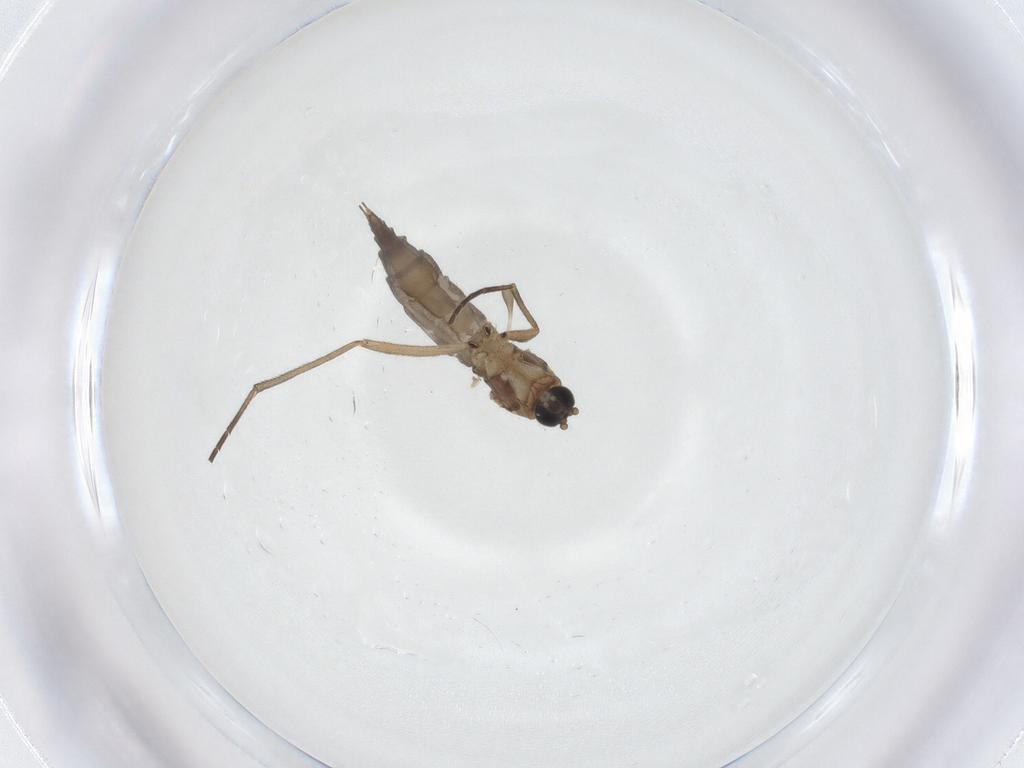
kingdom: Animalia
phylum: Arthropoda
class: Insecta
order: Diptera
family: Sciaridae
